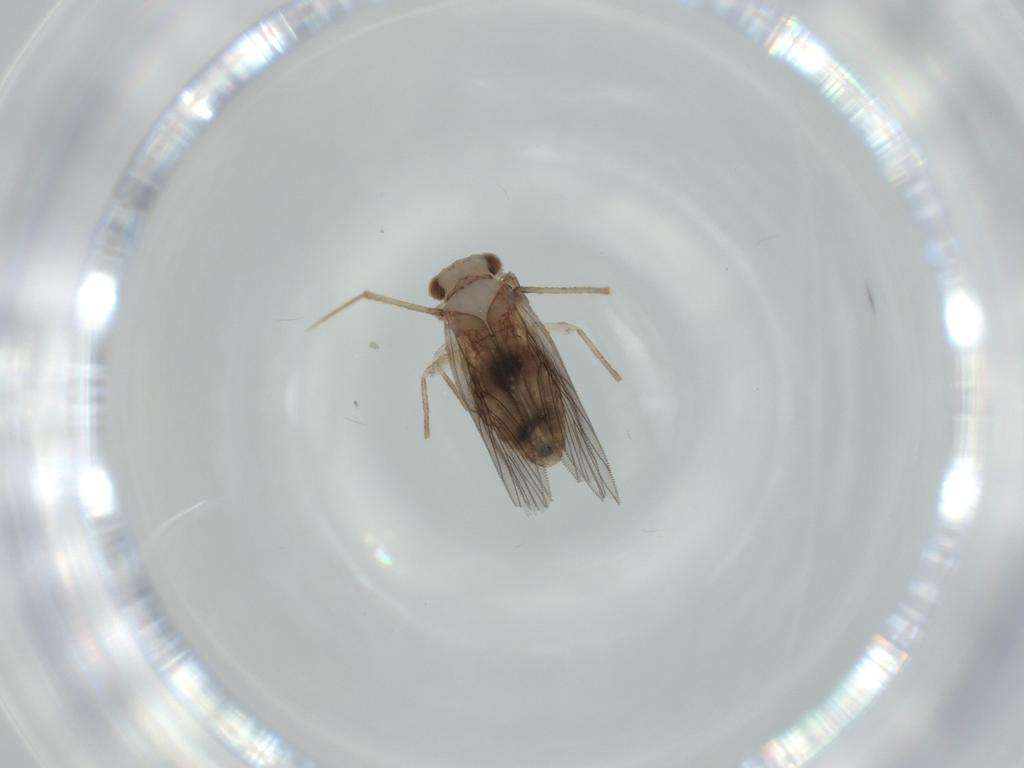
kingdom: Animalia
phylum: Arthropoda
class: Insecta
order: Psocodea
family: Lepidopsocidae
